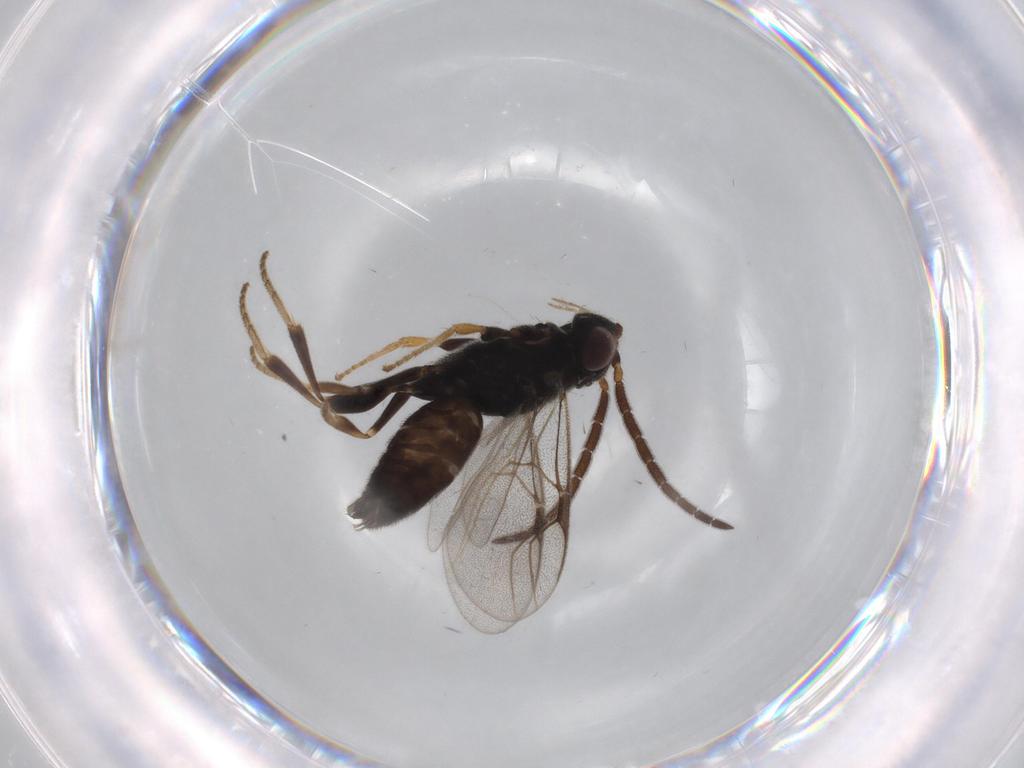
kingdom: Animalia
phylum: Arthropoda
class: Insecta
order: Hymenoptera
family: Dryinidae
